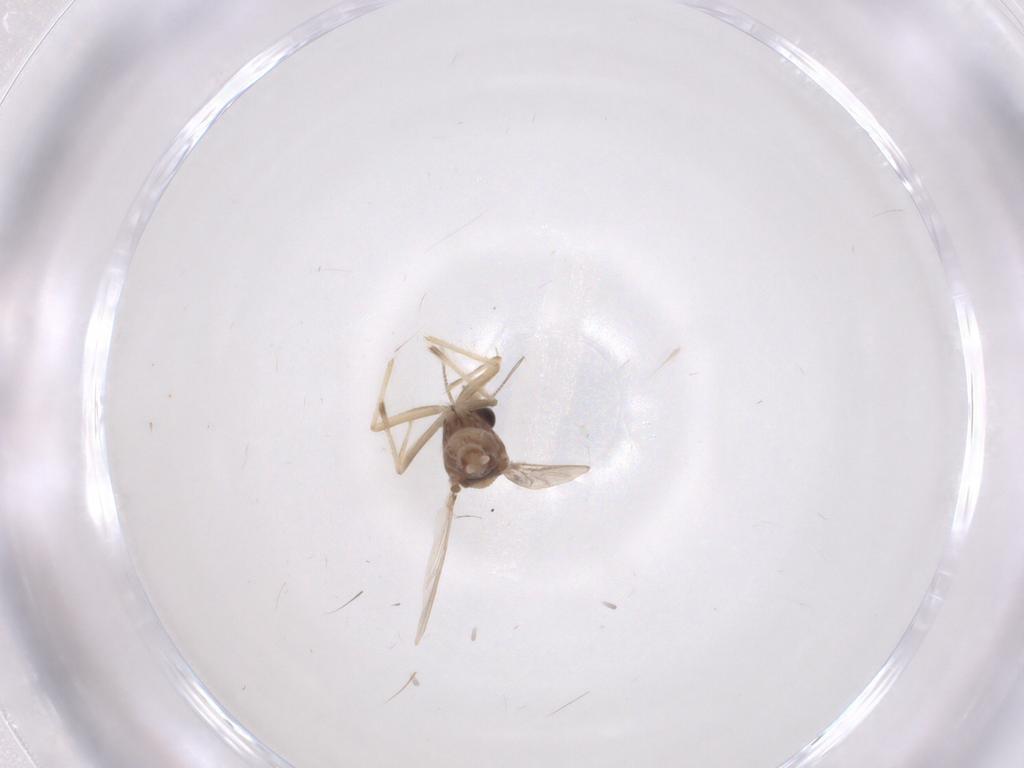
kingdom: Animalia
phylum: Arthropoda
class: Insecta
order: Diptera
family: Chironomidae
